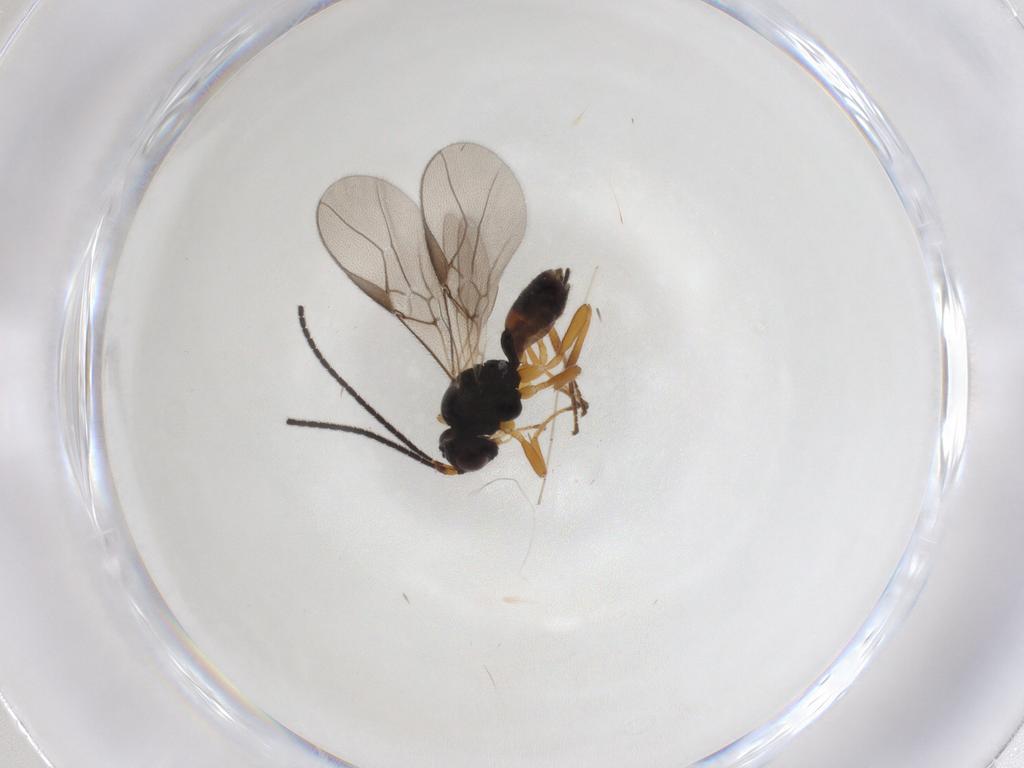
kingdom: Animalia
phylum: Arthropoda
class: Insecta
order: Hymenoptera
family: Braconidae
